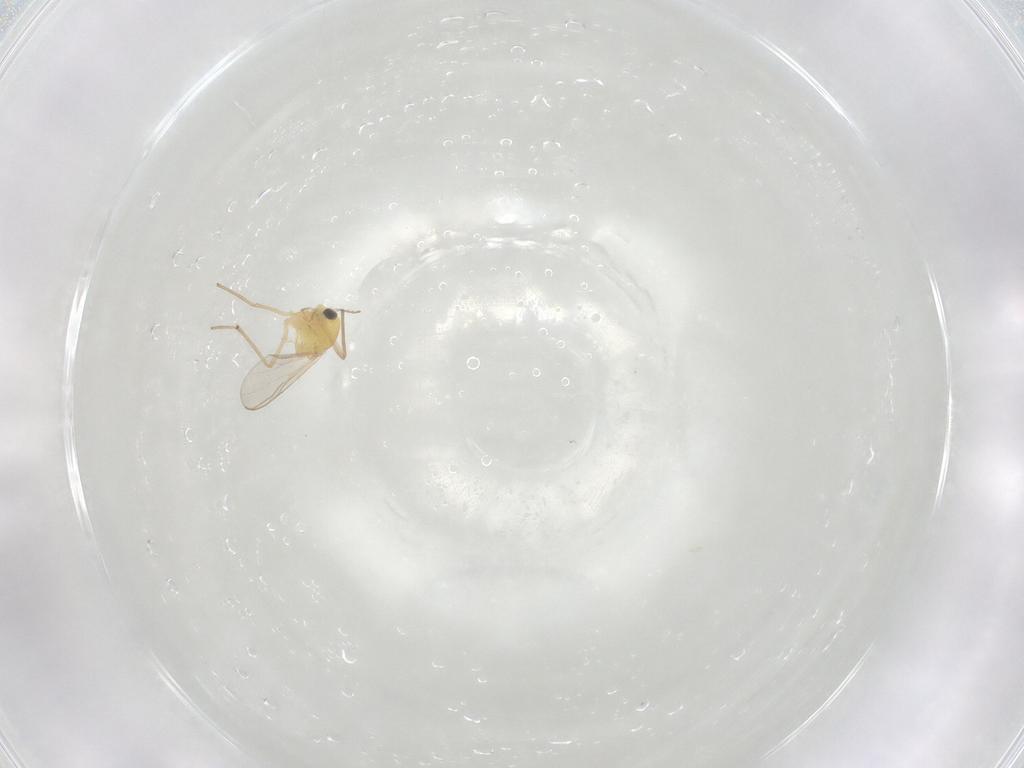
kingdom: Animalia
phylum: Arthropoda
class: Insecta
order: Diptera
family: Chironomidae
